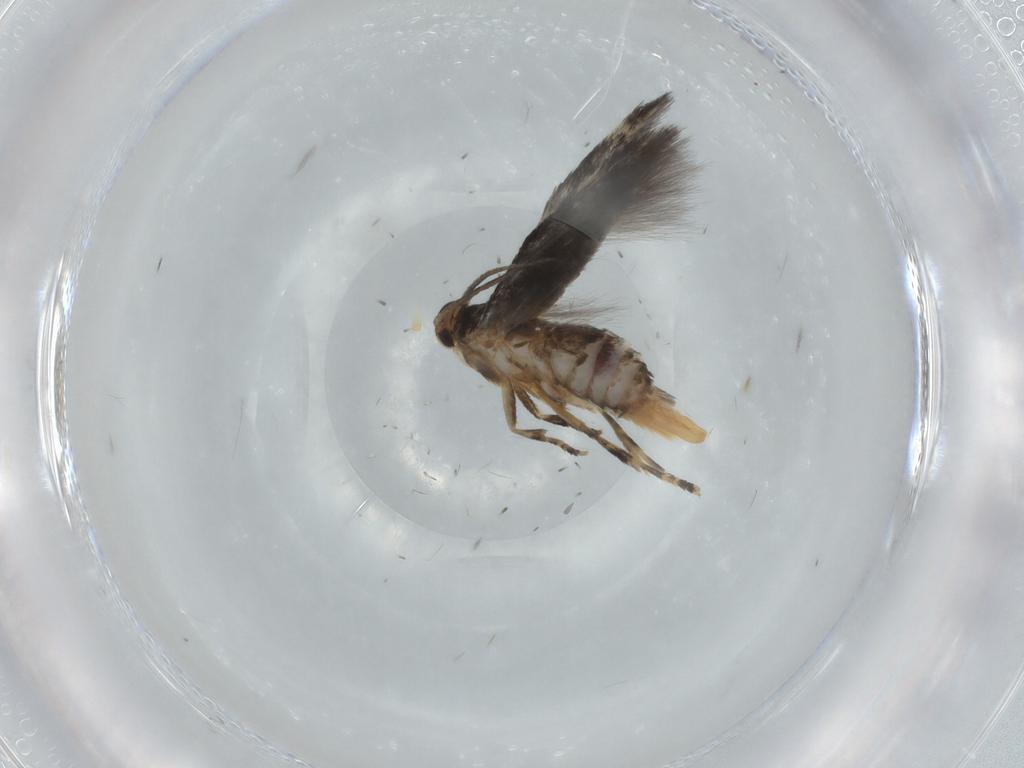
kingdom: Animalia
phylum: Arthropoda
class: Insecta
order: Lepidoptera
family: Elachistidae
